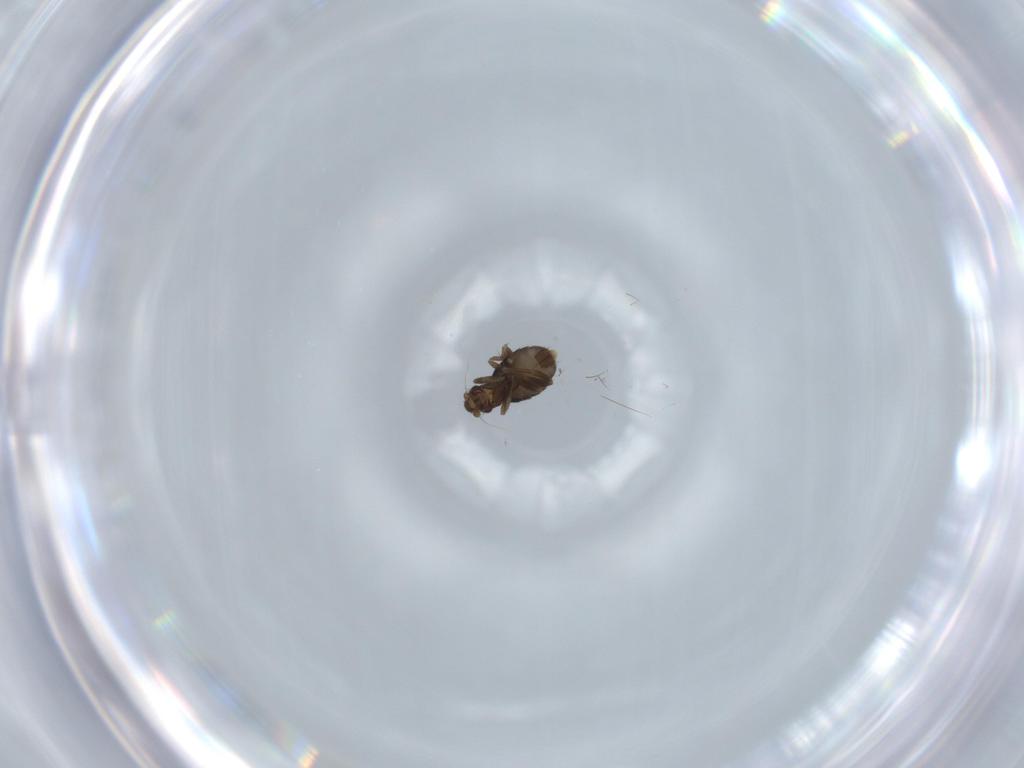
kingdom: Animalia
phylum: Arthropoda
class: Insecta
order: Diptera
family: Phoridae
